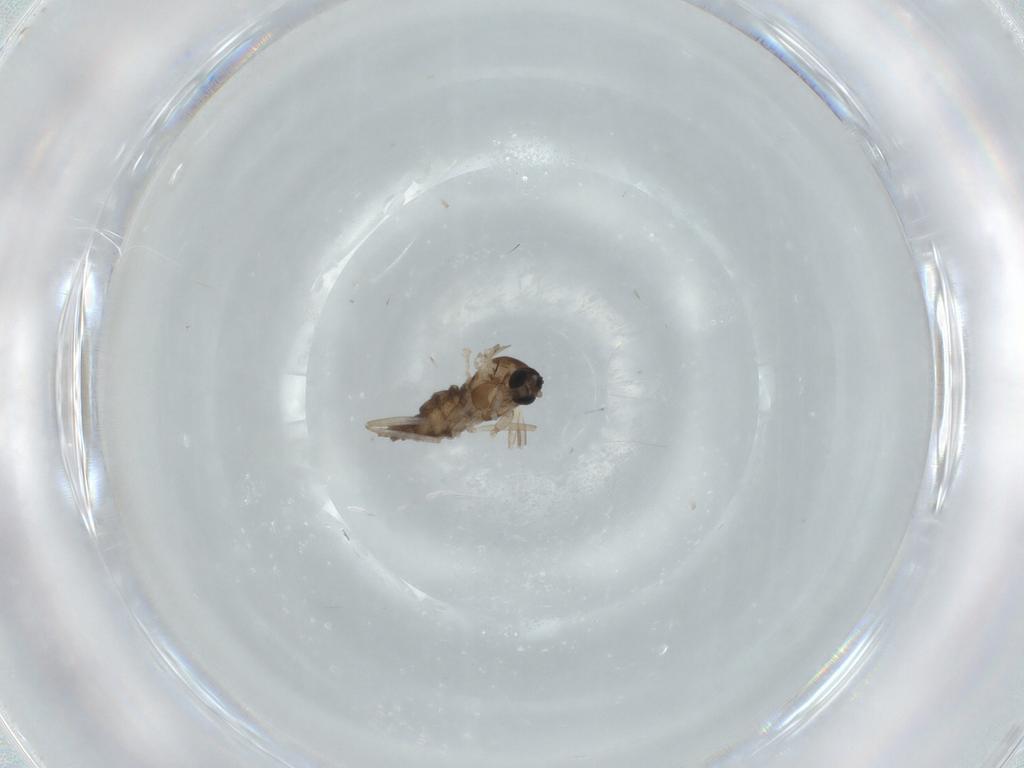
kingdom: Animalia
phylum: Arthropoda
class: Insecta
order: Diptera
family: Cecidomyiidae
